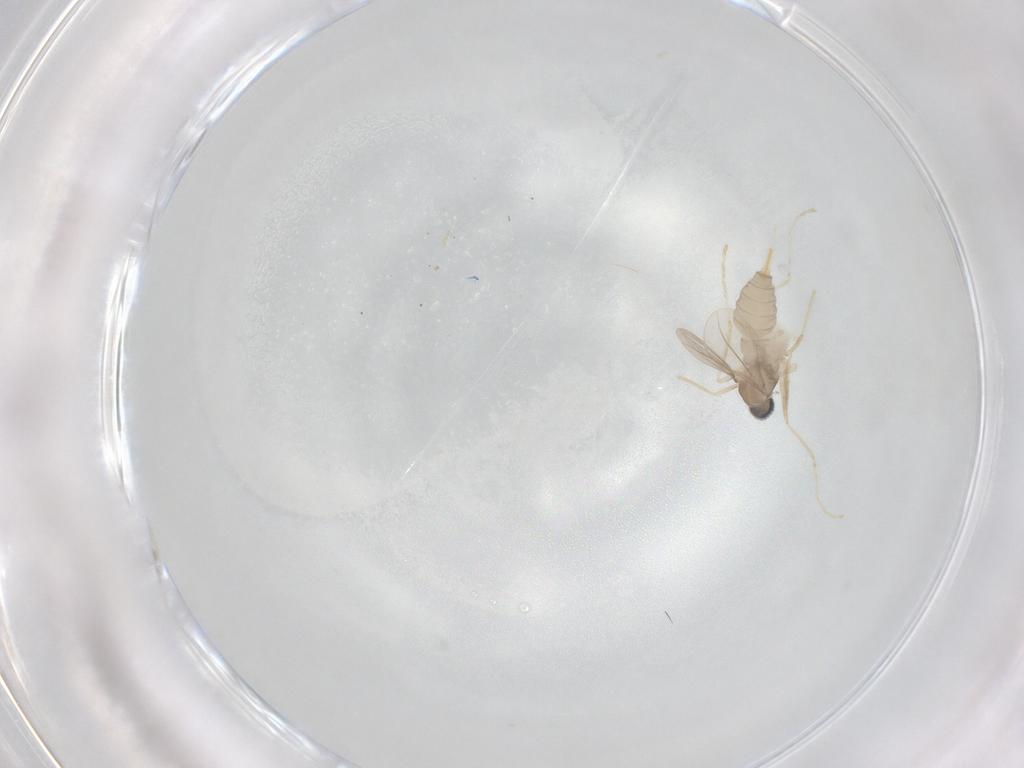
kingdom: Animalia
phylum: Arthropoda
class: Insecta
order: Diptera
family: Cecidomyiidae
